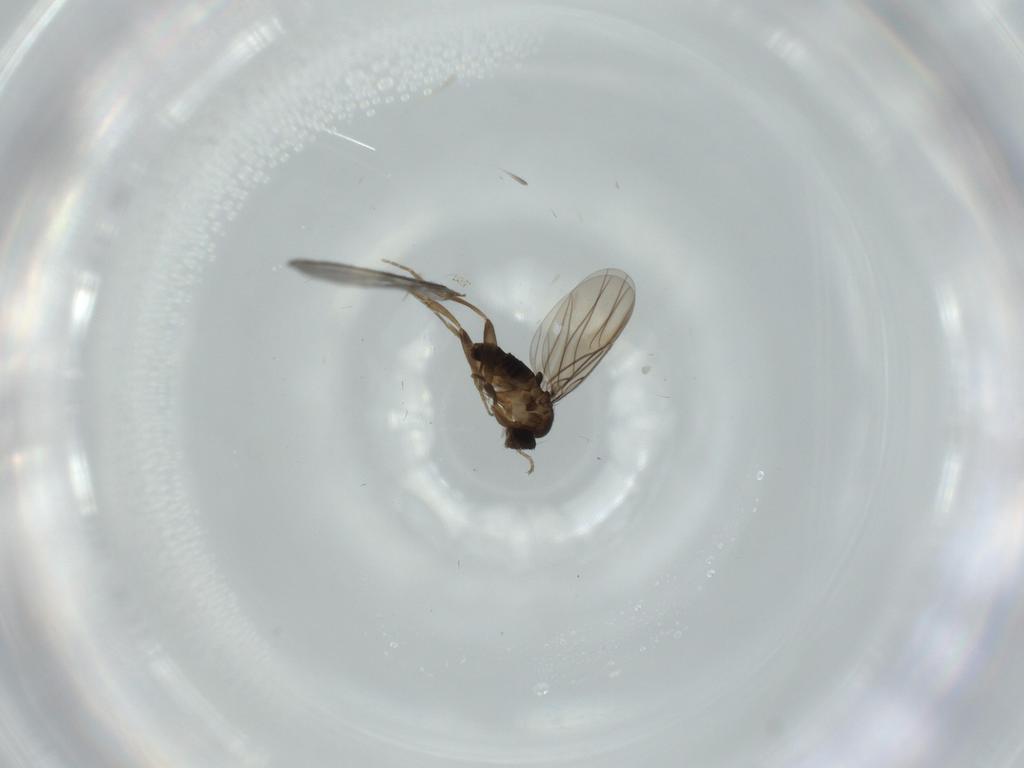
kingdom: Animalia
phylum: Arthropoda
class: Insecta
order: Diptera
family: Phoridae
